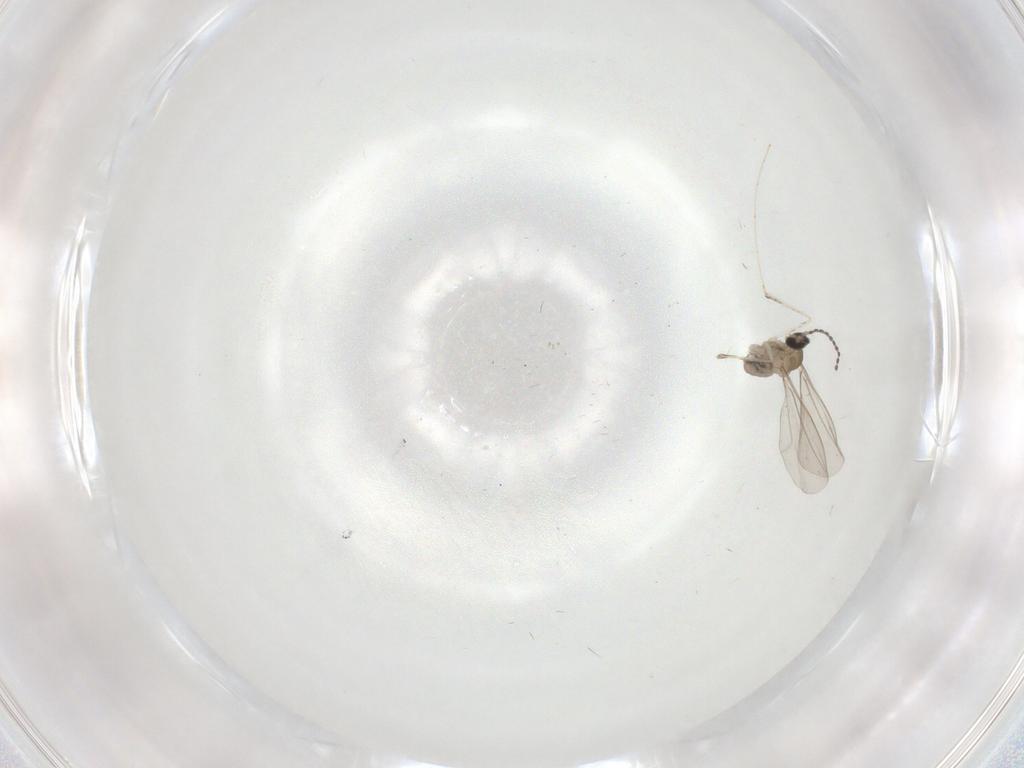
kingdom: Animalia
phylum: Arthropoda
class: Insecta
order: Diptera
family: Cecidomyiidae
